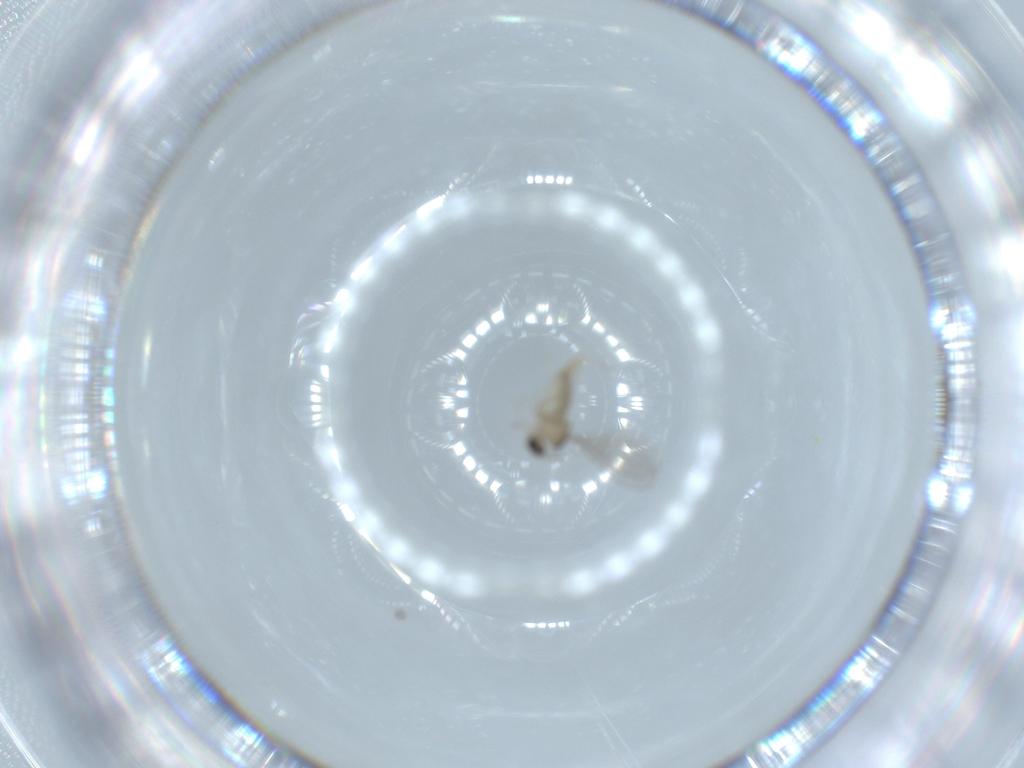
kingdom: Animalia
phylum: Arthropoda
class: Insecta
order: Diptera
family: Cecidomyiidae
